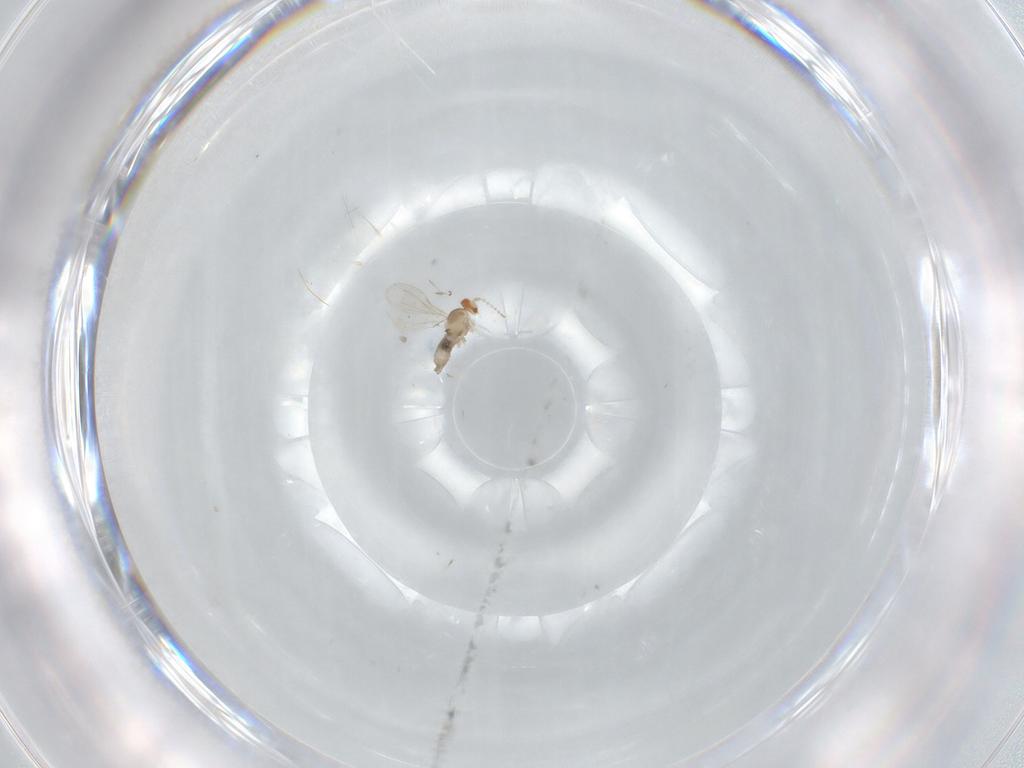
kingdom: Animalia
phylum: Arthropoda
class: Insecta
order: Diptera
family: Cecidomyiidae
